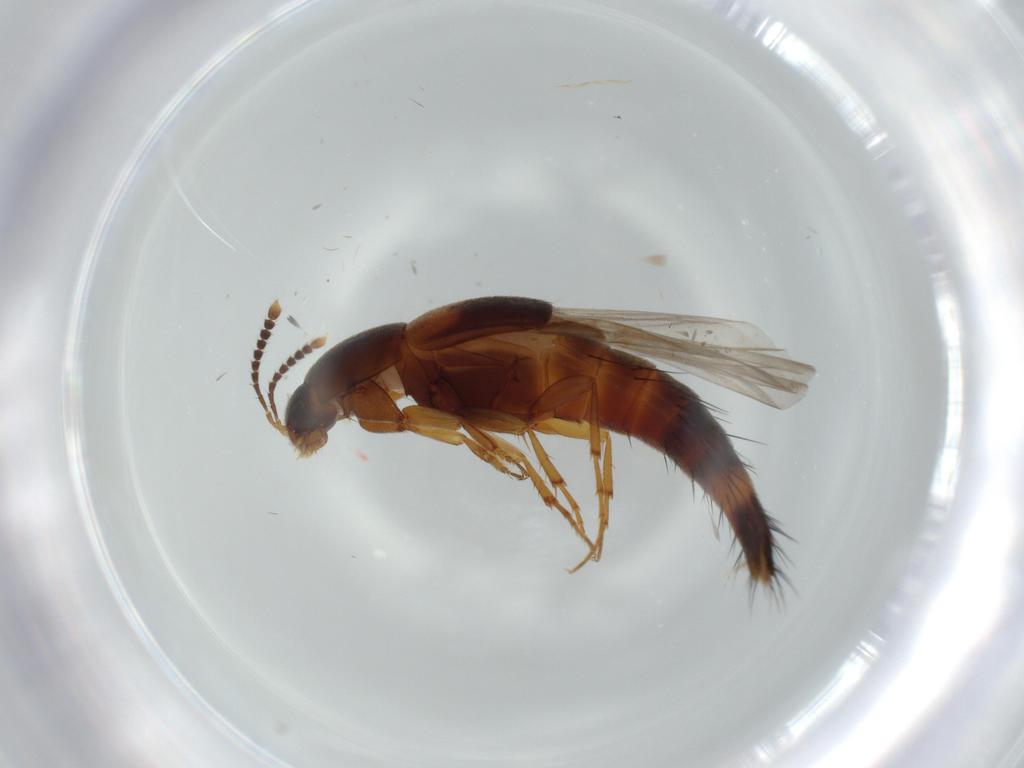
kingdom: Animalia
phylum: Arthropoda
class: Insecta
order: Coleoptera
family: Staphylinidae
